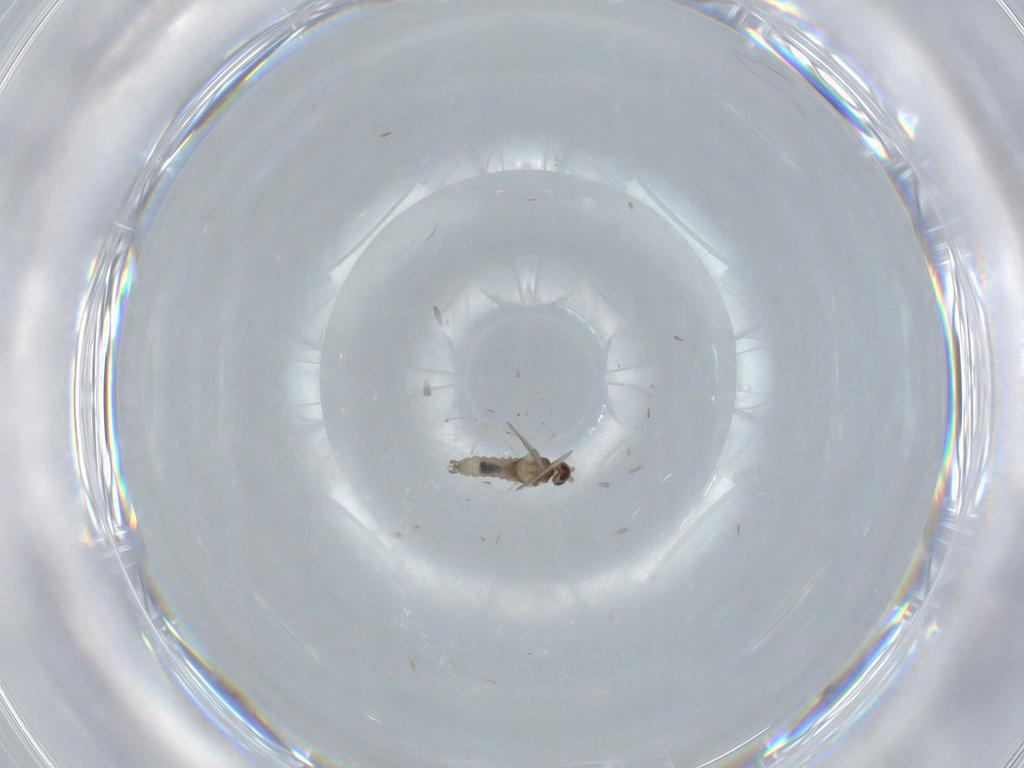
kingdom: Animalia
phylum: Arthropoda
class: Insecta
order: Diptera
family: Cecidomyiidae
